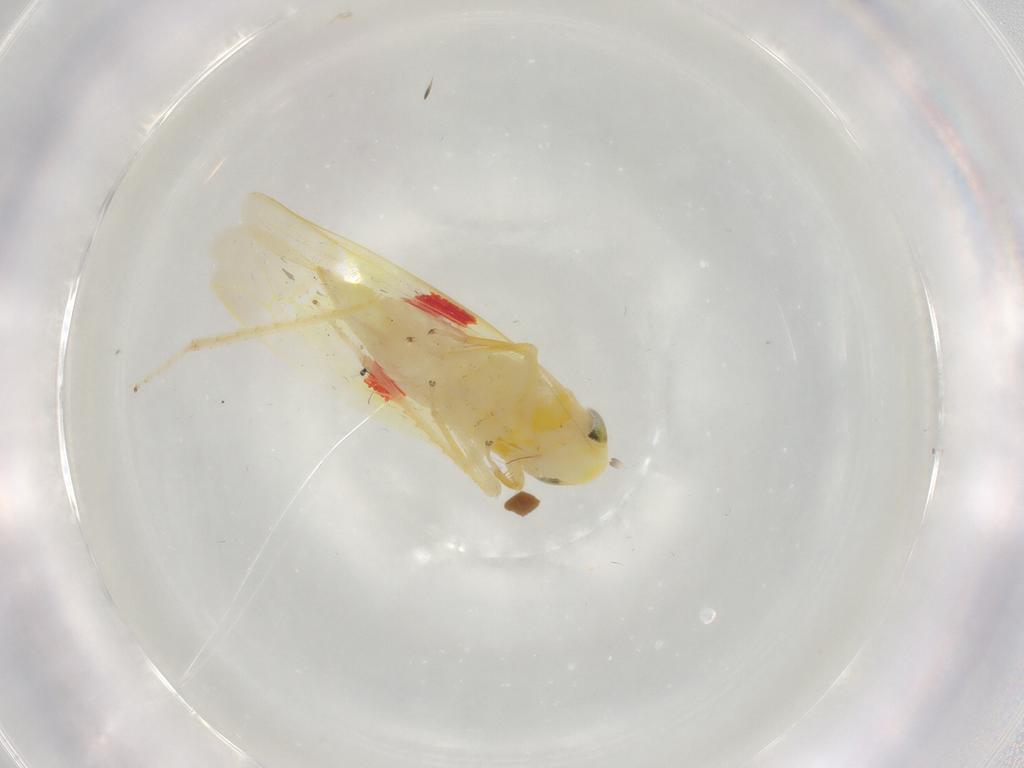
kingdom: Animalia
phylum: Arthropoda
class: Insecta
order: Hemiptera
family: Cicadellidae
